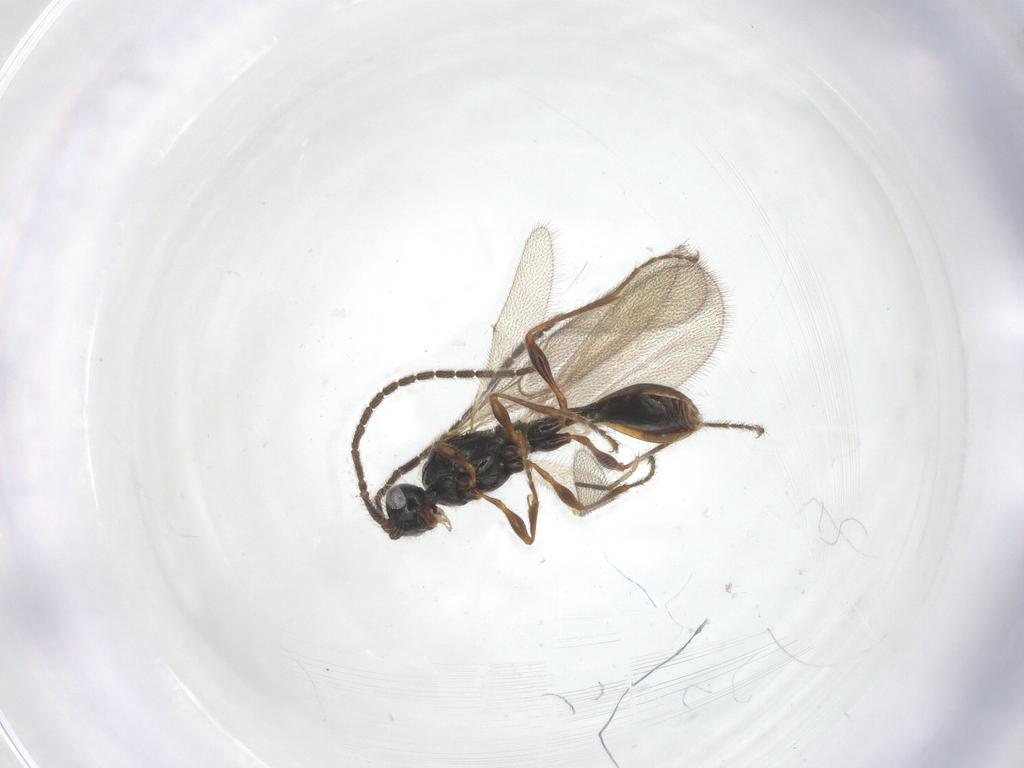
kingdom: Animalia
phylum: Arthropoda
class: Insecta
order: Hymenoptera
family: Diapriidae
